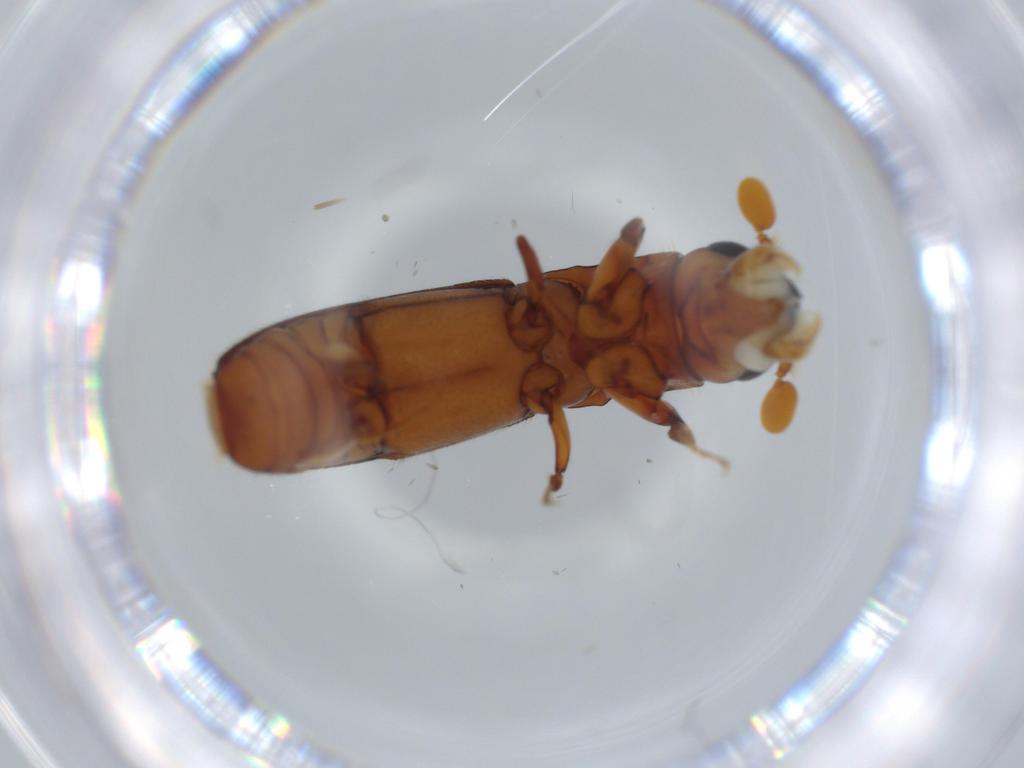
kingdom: Animalia
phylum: Arthropoda
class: Insecta
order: Coleoptera
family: Curculionidae
